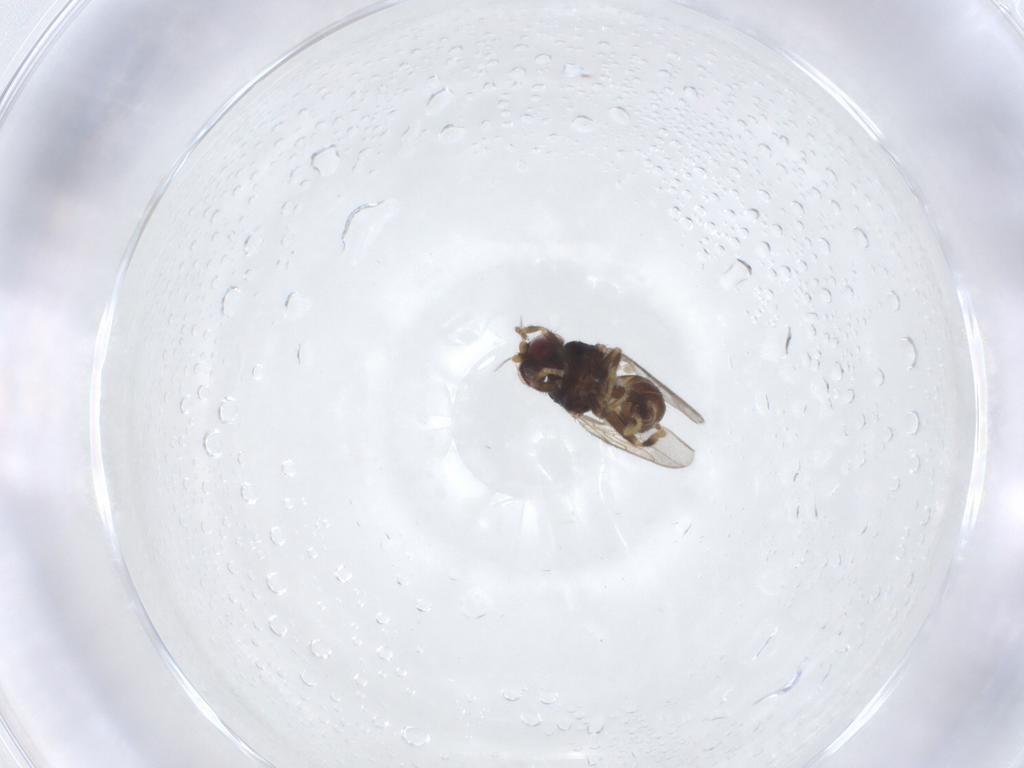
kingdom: Animalia
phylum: Arthropoda
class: Insecta
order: Diptera
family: Chloropidae
